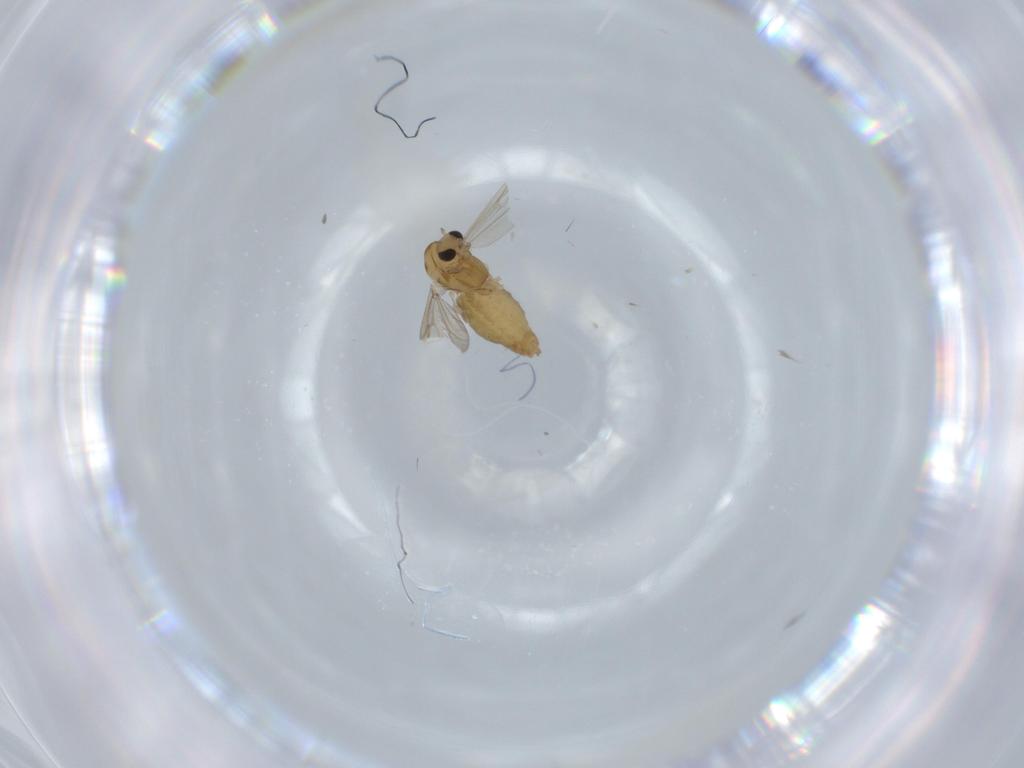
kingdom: Animalia
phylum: Arthropoda
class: Insecta
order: Diptera
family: Chironomidae
